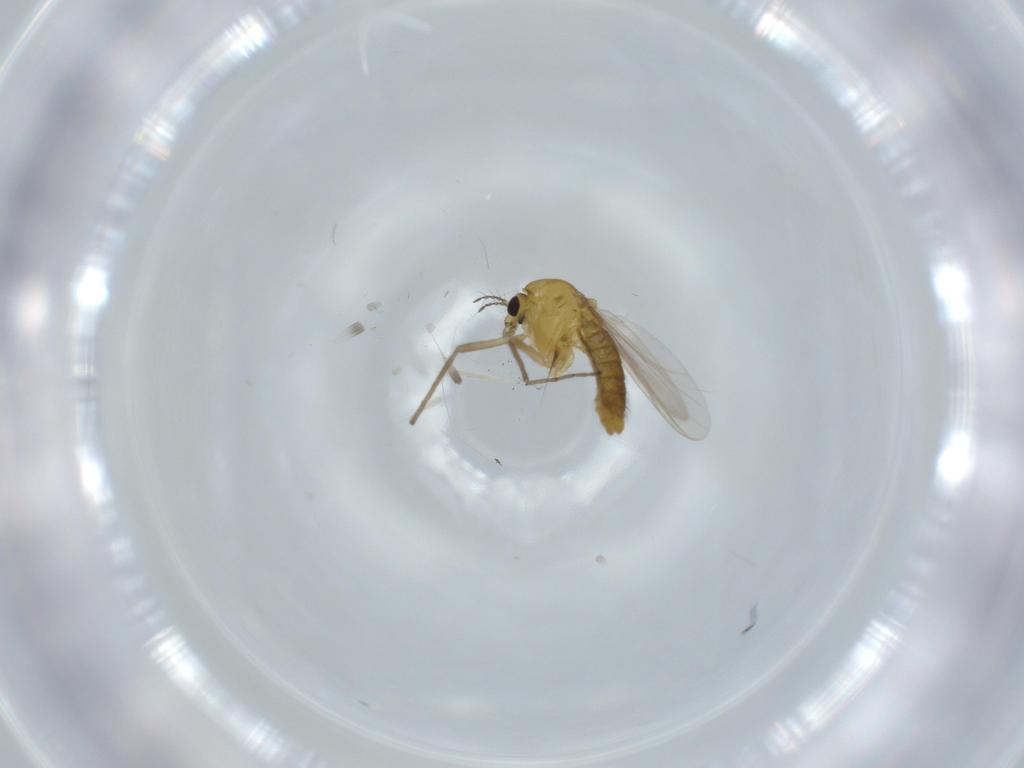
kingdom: Animalia
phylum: Arthropoda
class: Insecta
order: Diptera
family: Chironomidae
